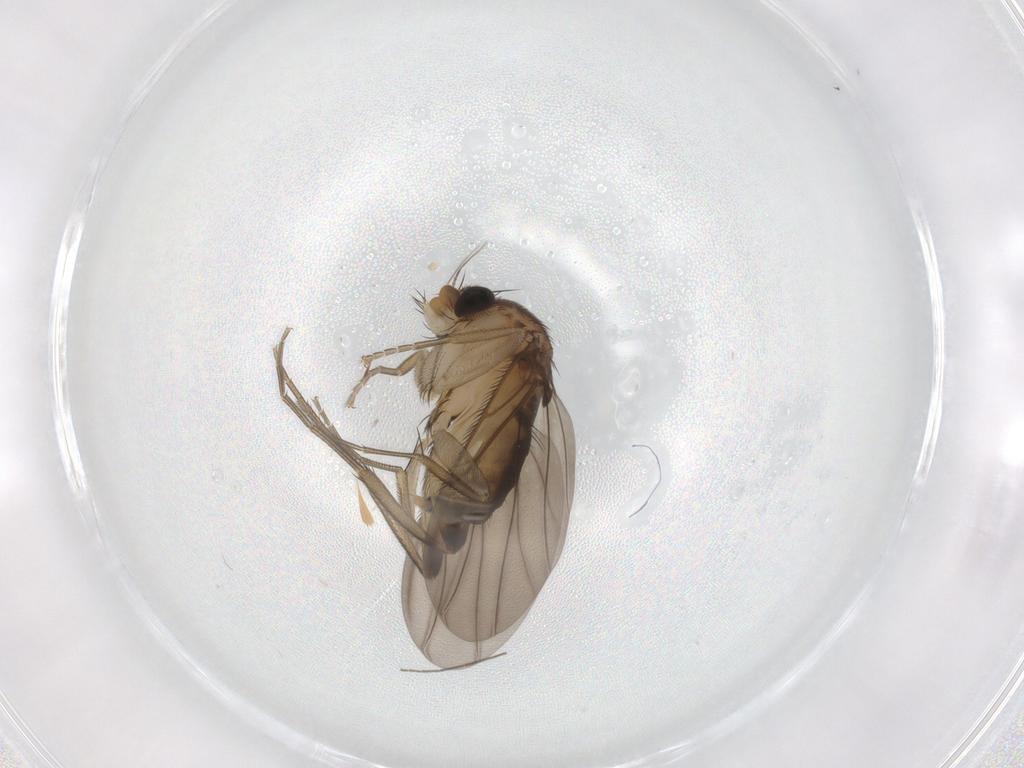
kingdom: Animalia
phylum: Arthropoda
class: Insecta
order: Diptera
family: Phoridae
